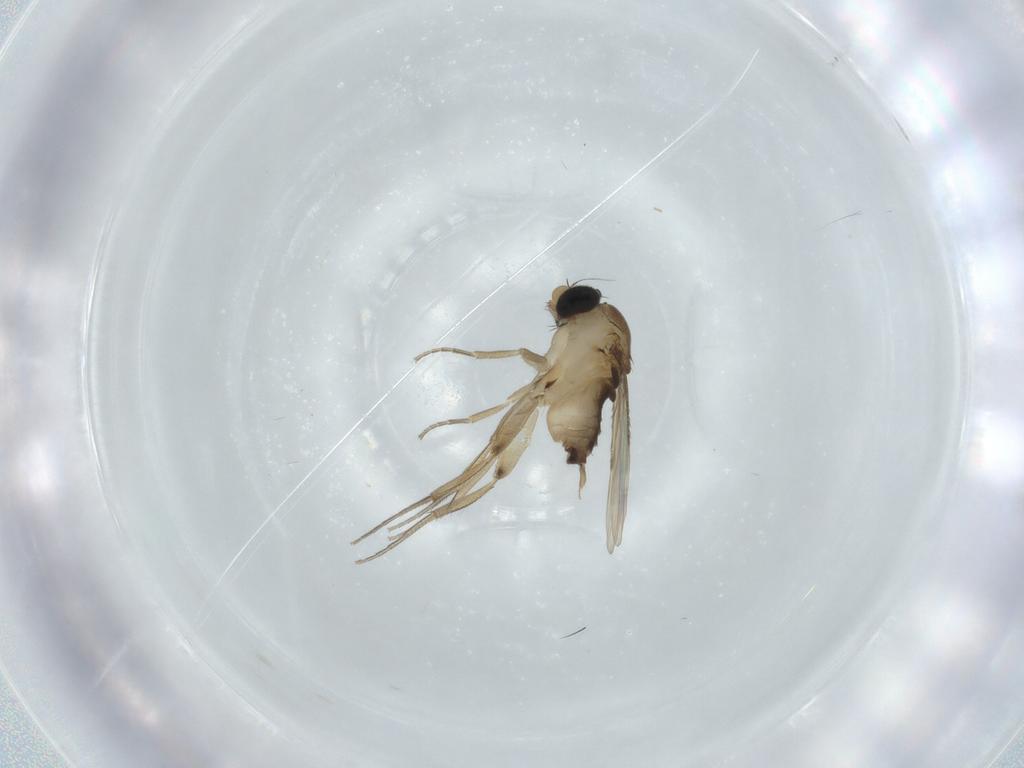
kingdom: Animalia
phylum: Arthropoda
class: Insecta
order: Diptera
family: Phoridae
